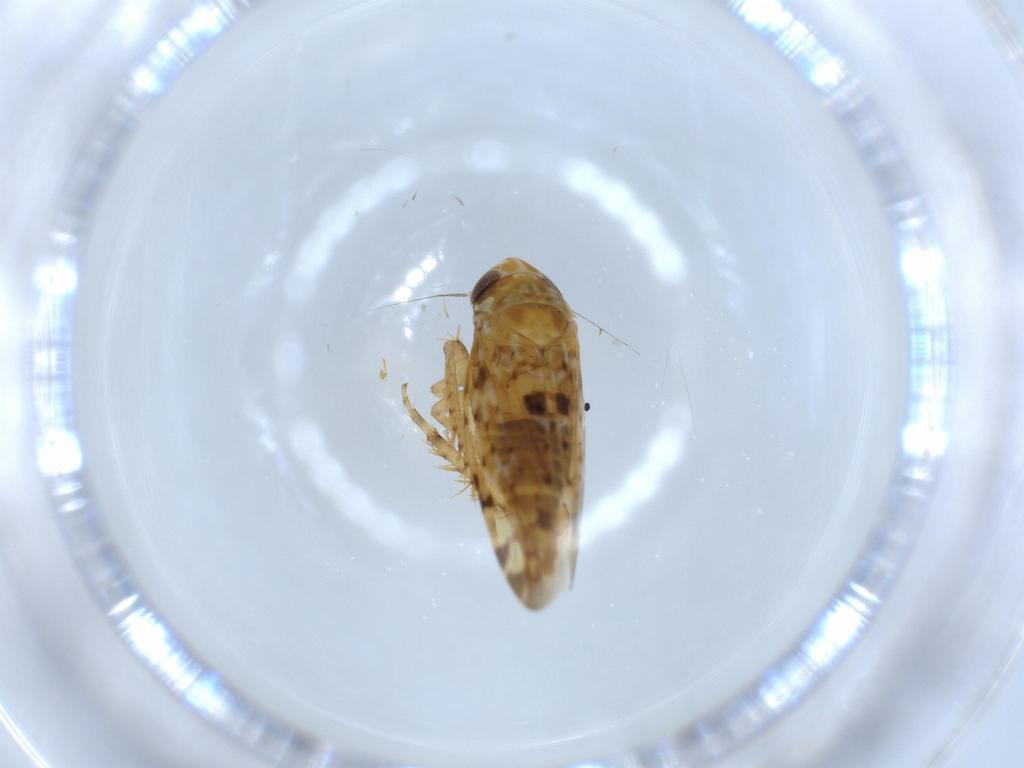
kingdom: Animalia
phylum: Arthropoda
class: Insecta
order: Hemiptera
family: Cicadellidae
